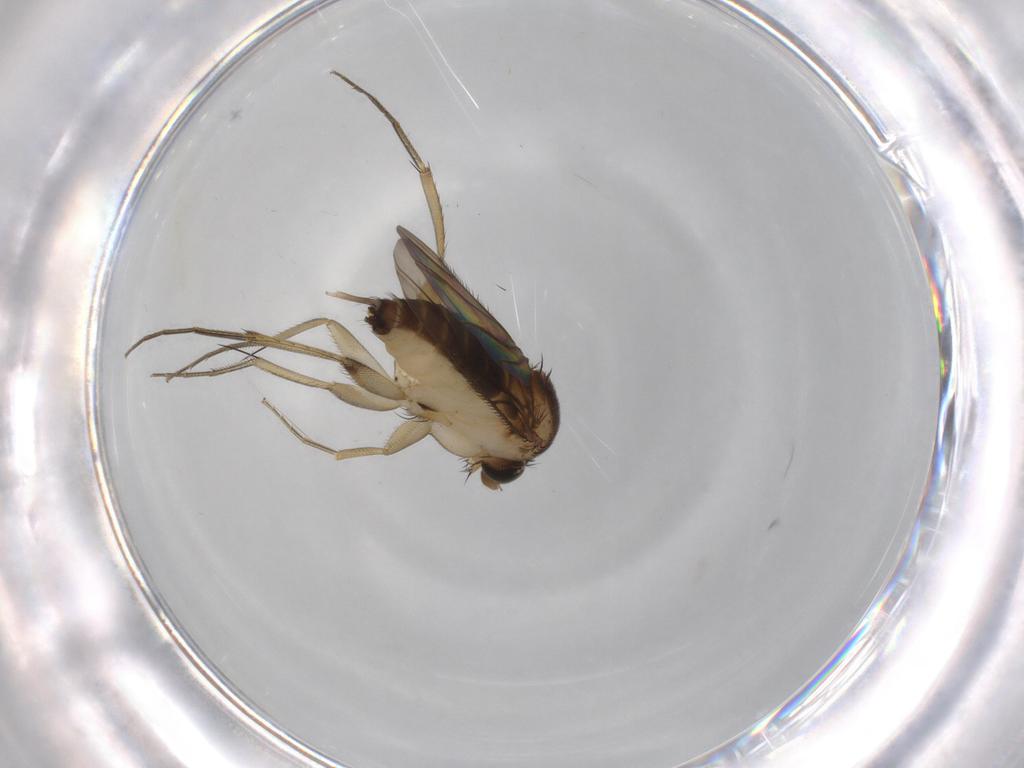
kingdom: Animalia
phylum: Arthropoda
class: Insecta
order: Diptera
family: Phoridae
